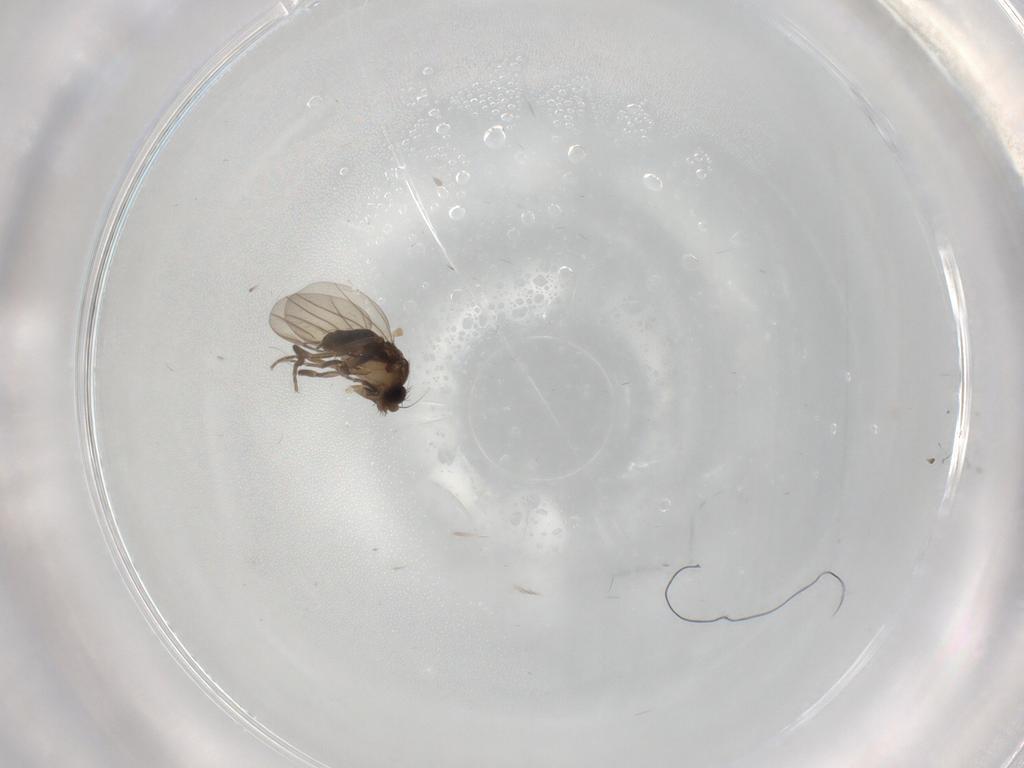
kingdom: Animalia
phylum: Arthropoda
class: Insecta
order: Diptera
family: Phoridae
